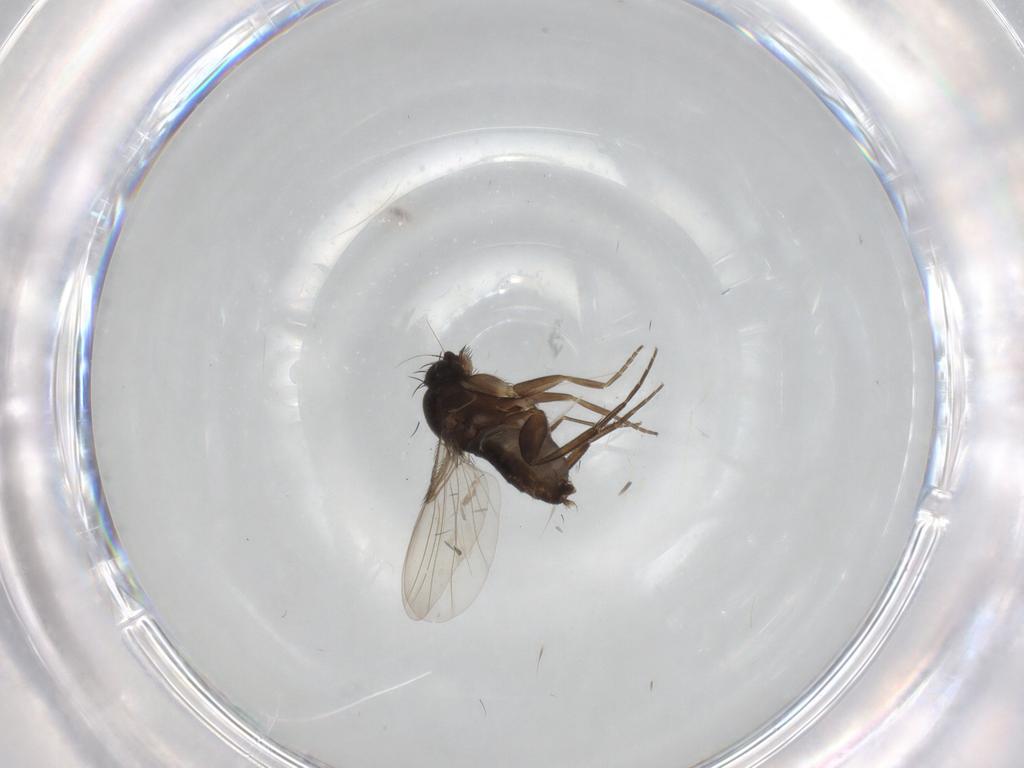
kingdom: Animalia
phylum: Arthropoda
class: Insecta
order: Diptera
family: Phoridae
